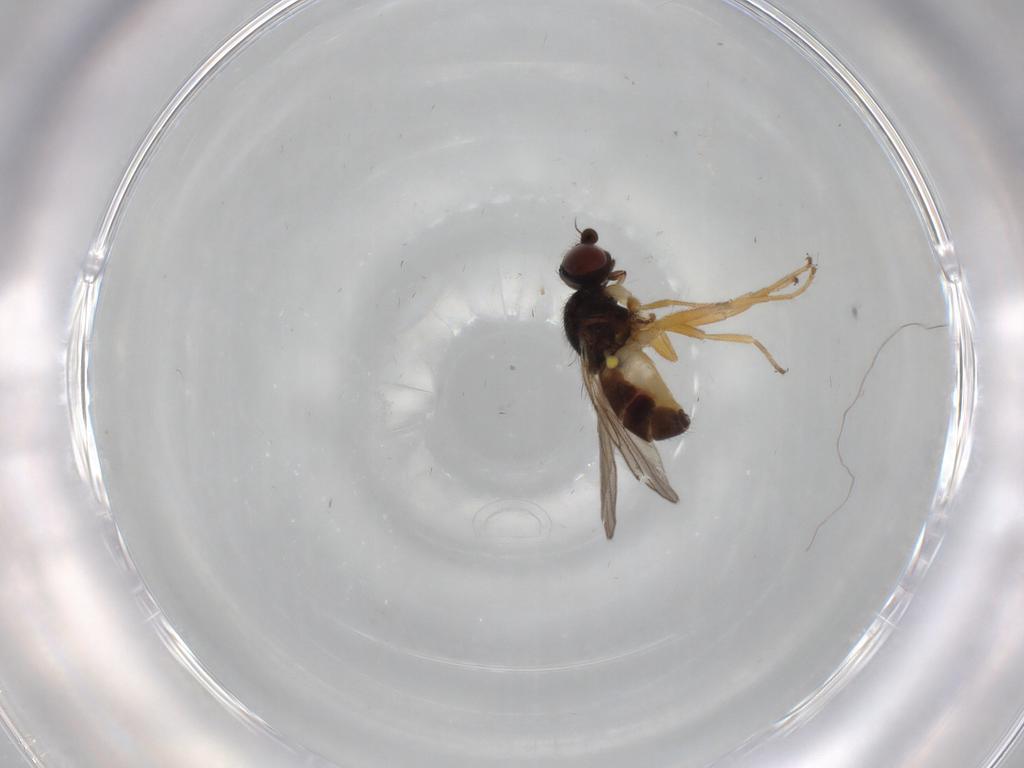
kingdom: Animalia
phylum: Arthropoda
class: Insecta
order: Diptera
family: Chloropidae
